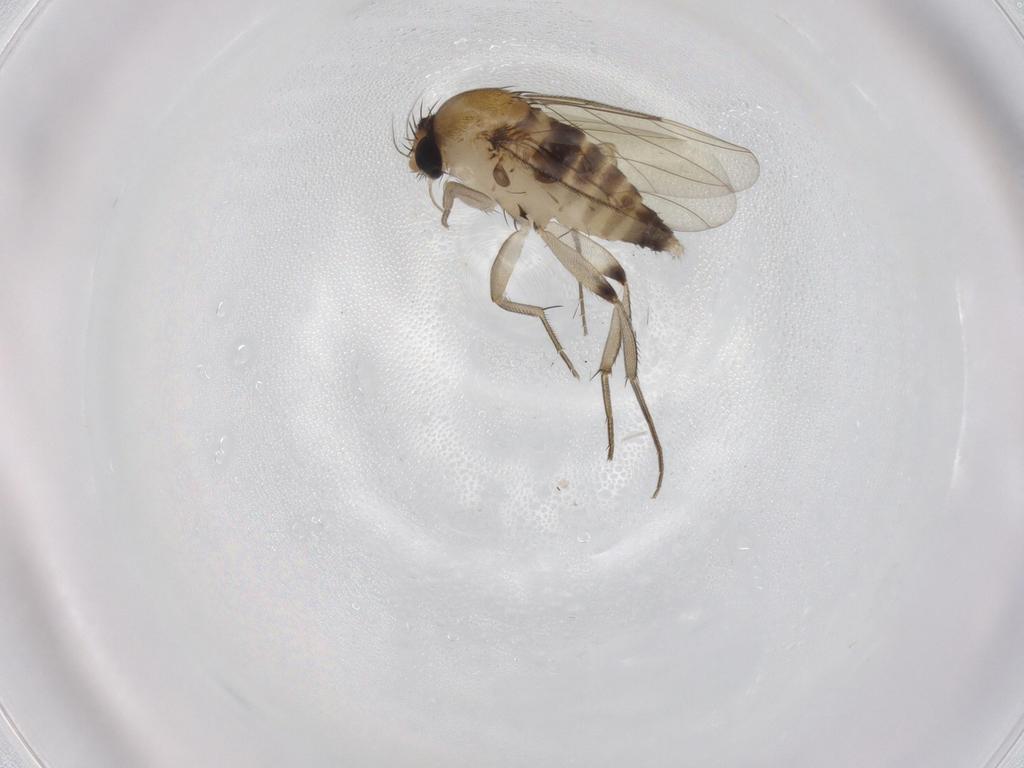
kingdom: Animalia
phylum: Arthropoda
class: Insecta
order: Diptera
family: Phoridae
